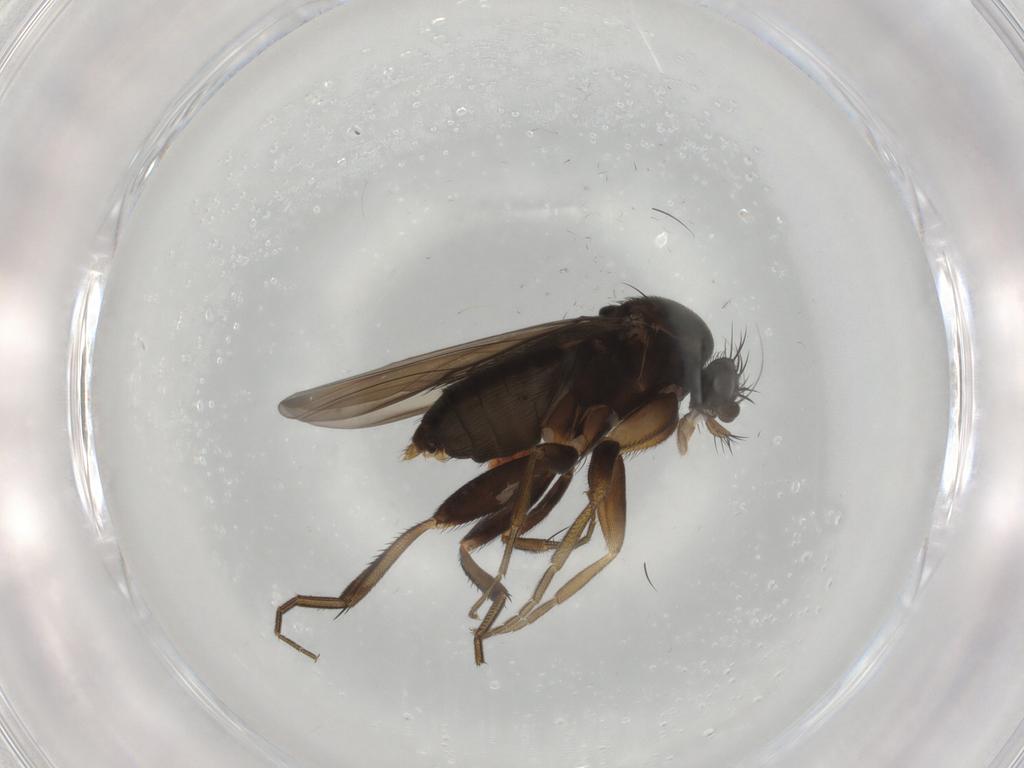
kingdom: Animalia
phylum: Arthropoda
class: Insecta
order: Diptera
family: Phoridae
